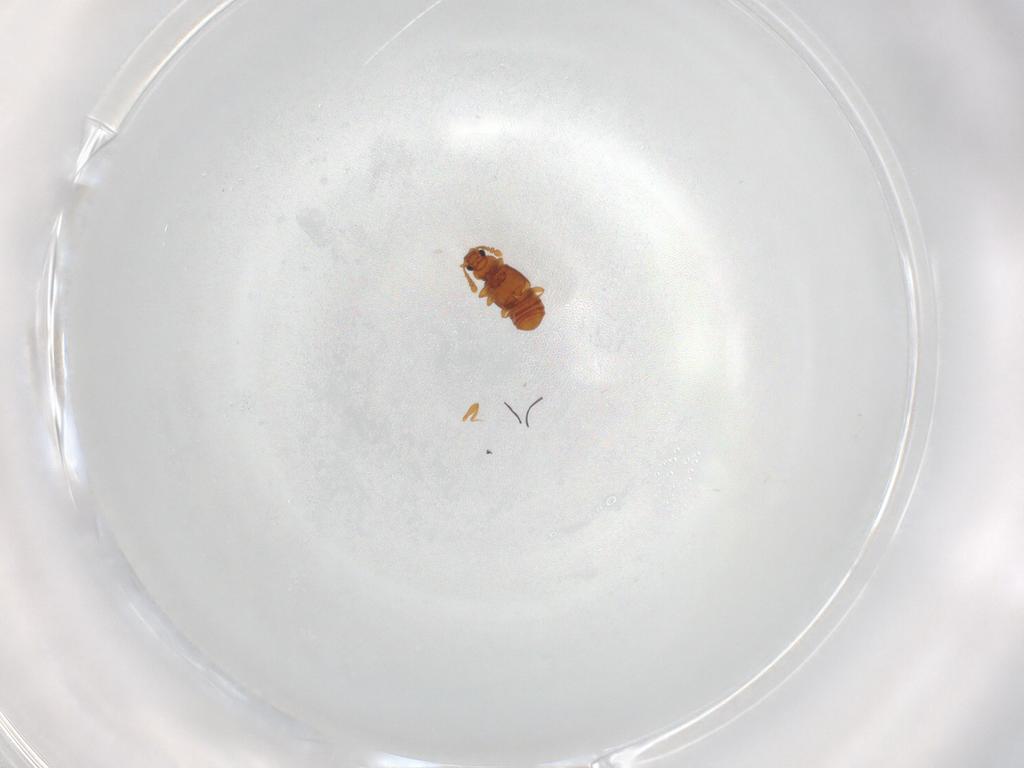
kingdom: Animalia
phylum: Arthropoda
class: Insecta
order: Coleoptera
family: Staphylinidae
